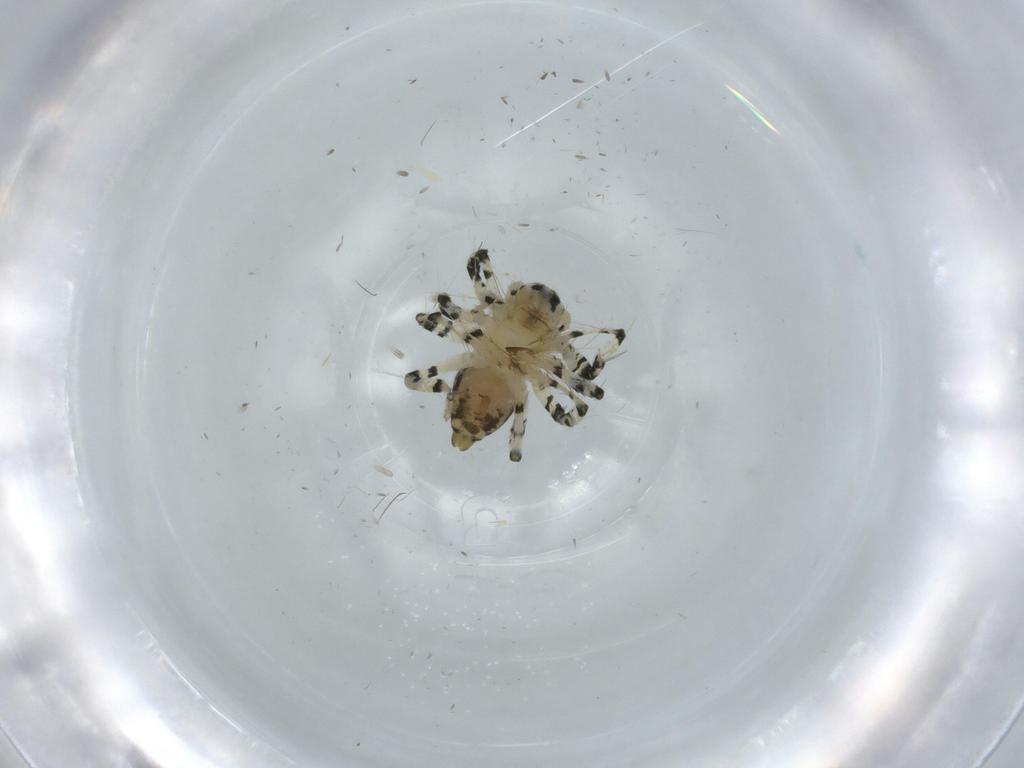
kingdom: Animalia
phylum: Arthropoda
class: Arachnida
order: Araneae
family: Oxyopidae
